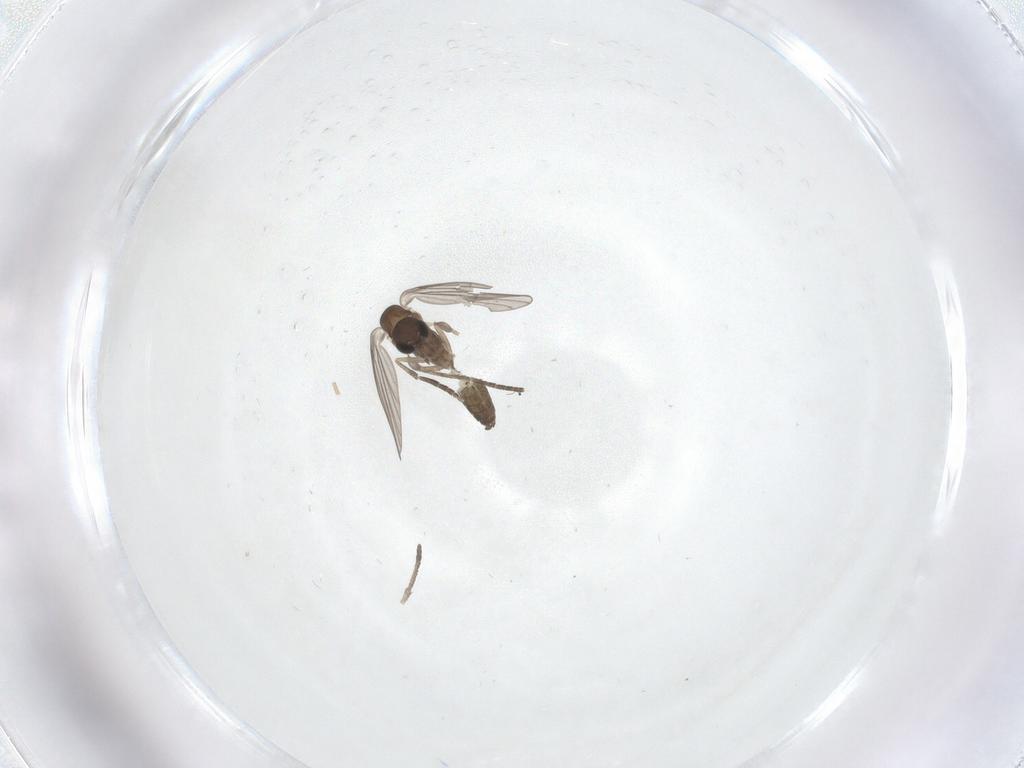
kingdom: Animalia
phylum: Arthropoda
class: Insecta
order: Diptera
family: Psychodidae
